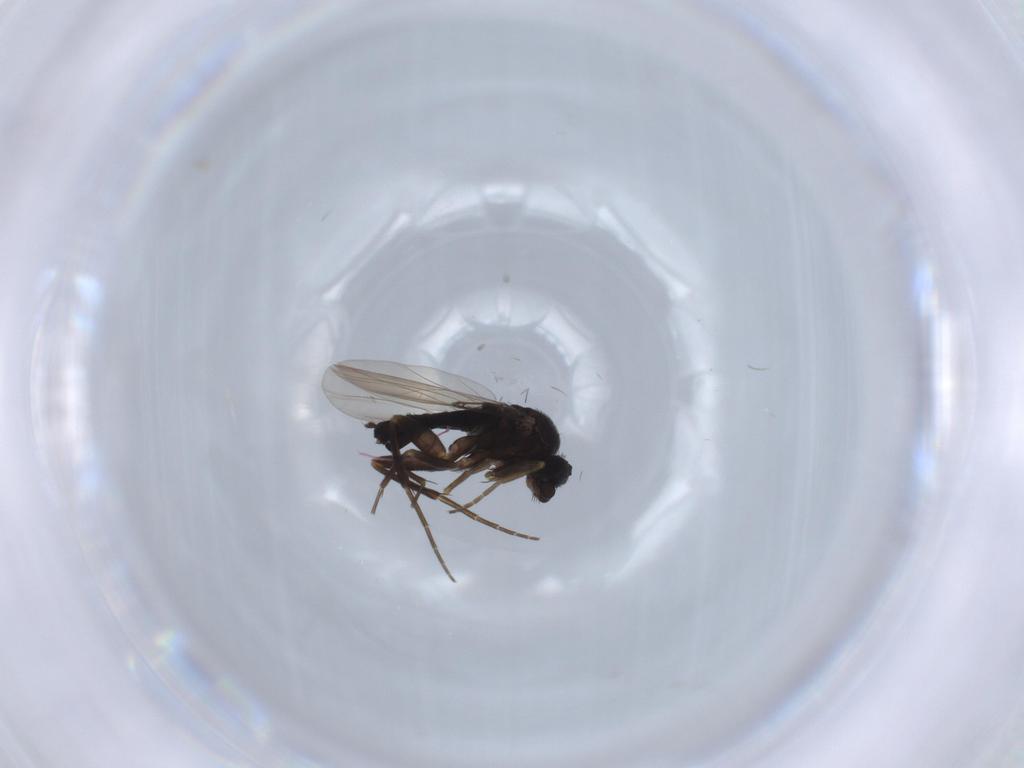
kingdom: Animalia
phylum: Arthropoda
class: Insecta
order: Diptera
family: Phoridae
